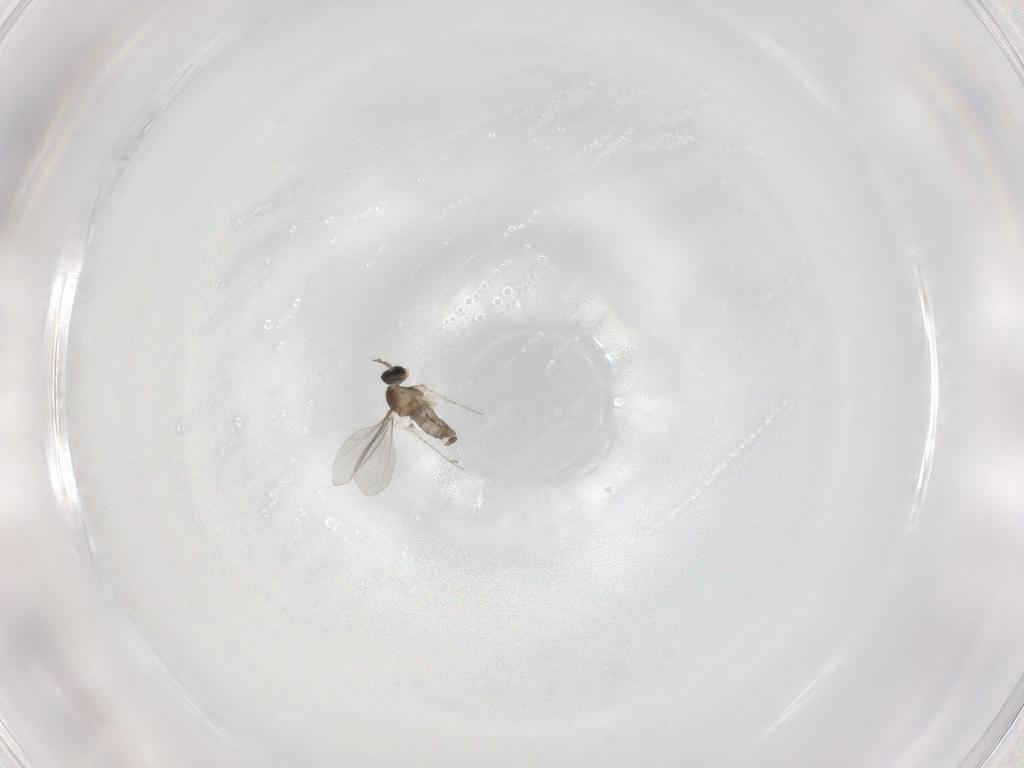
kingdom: Animalia
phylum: Arthropoda
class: Insecta
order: Diptera
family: Cecidomyiidae
